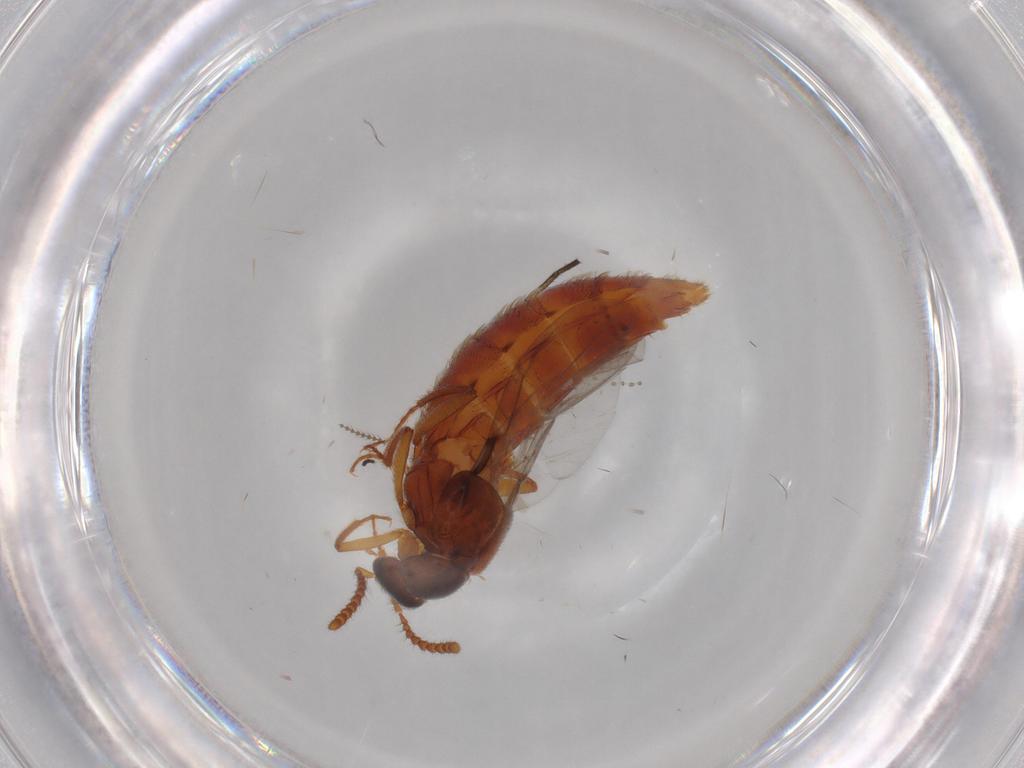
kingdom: Animalia
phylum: Arthropoda
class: Insecta
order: Coleoptera
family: Staphylinidae
